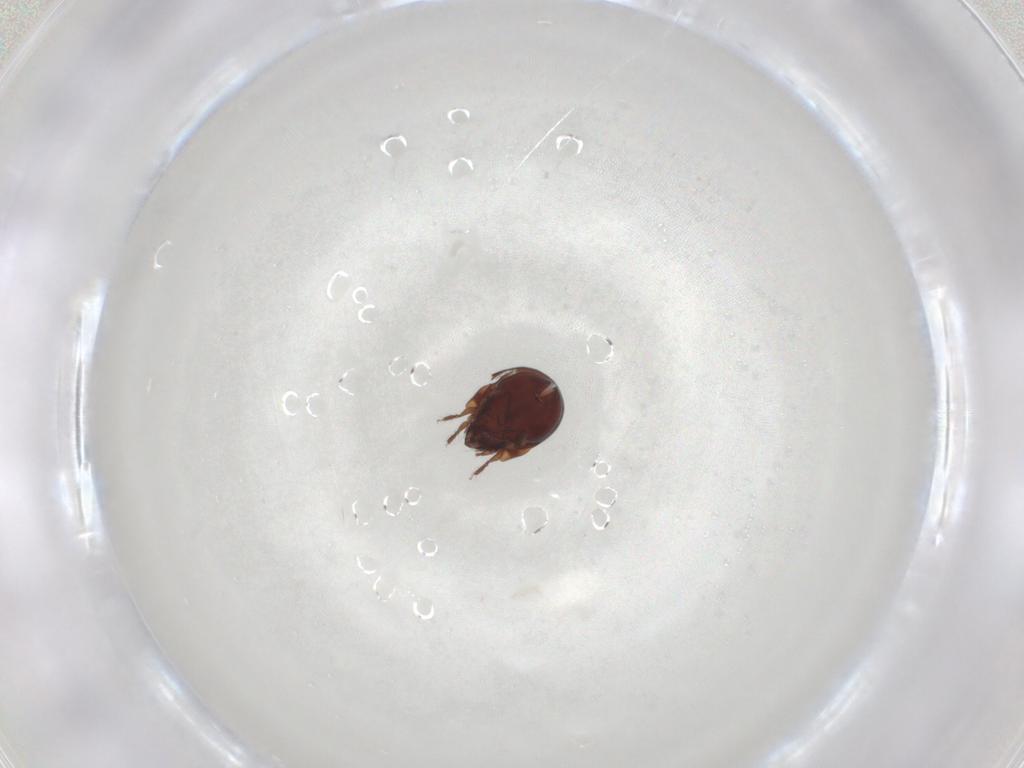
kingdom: Animalia
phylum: Arthropoda
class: Arachnida
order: Sarcoptiformes
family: Humerobatidae
